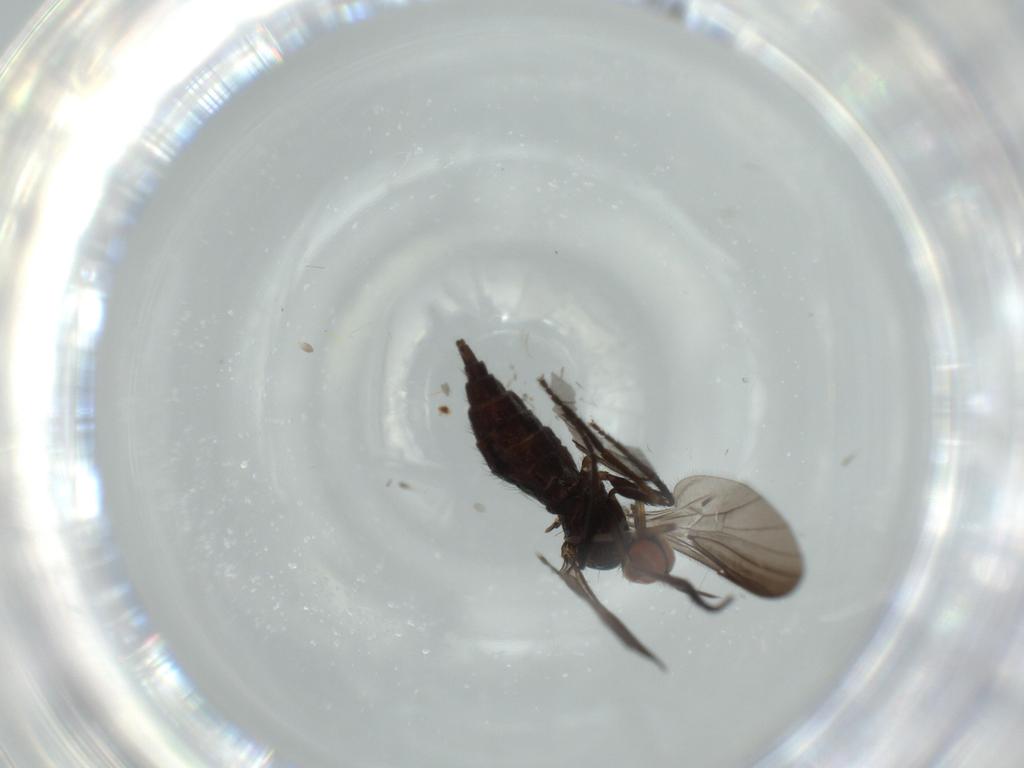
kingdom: Animalia
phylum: Arthropoda
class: Insecta
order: Diptera
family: Empididae
